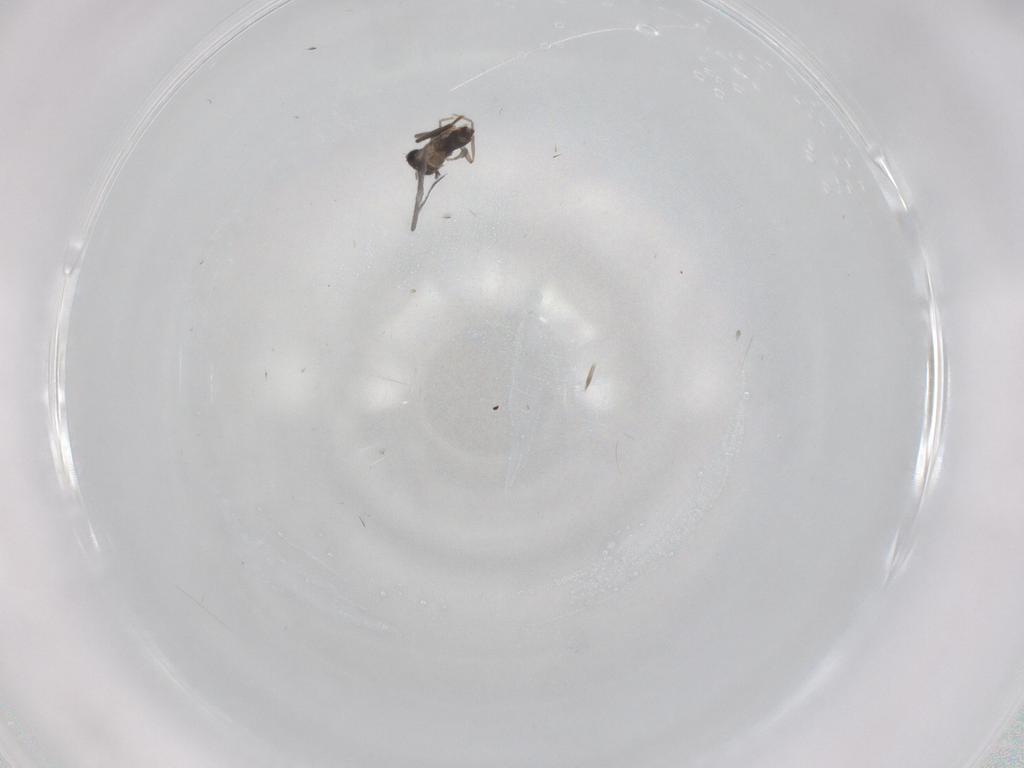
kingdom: Animalia
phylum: Arthropoda
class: Insecta
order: Diptera
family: Phoridae
